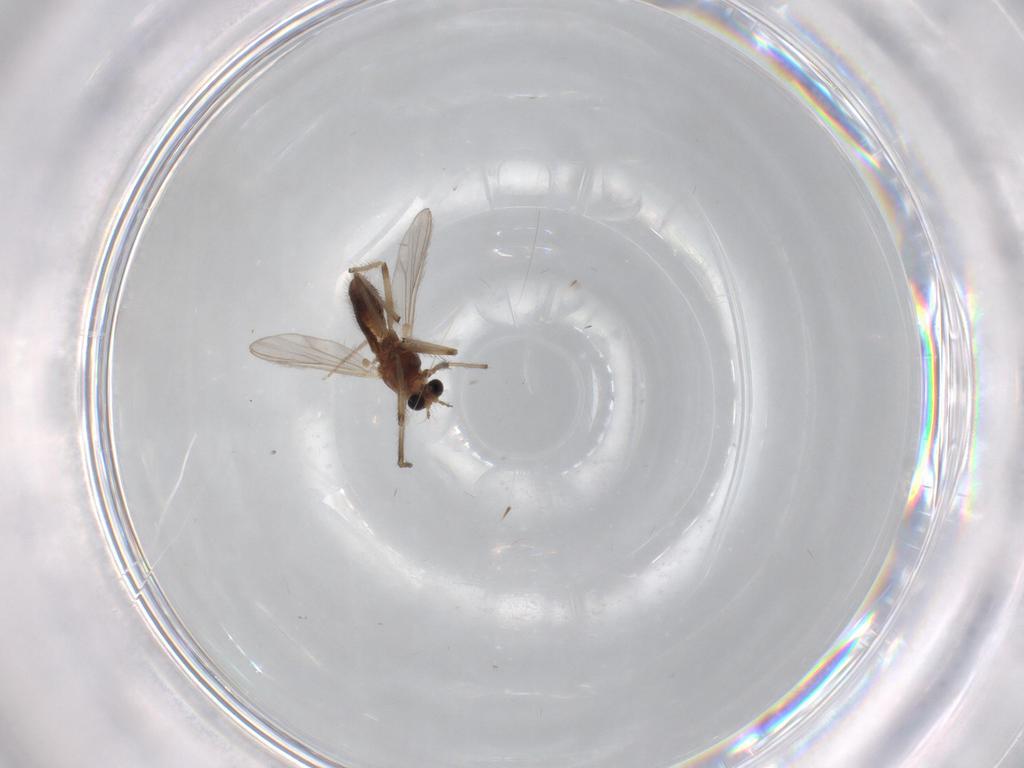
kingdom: Animalia
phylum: Arthropoda
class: Insecta
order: Diptera
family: Chironomidae
